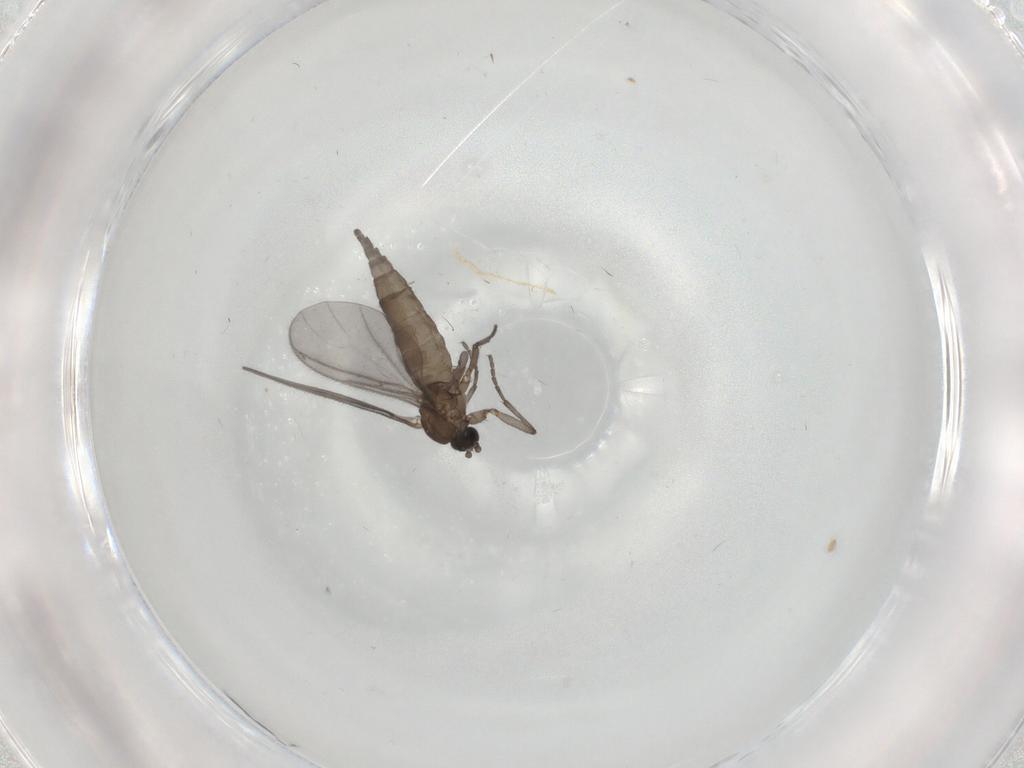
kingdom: Animalia
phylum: Arthropoda
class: Insecta
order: Diptera
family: Sciaridae
